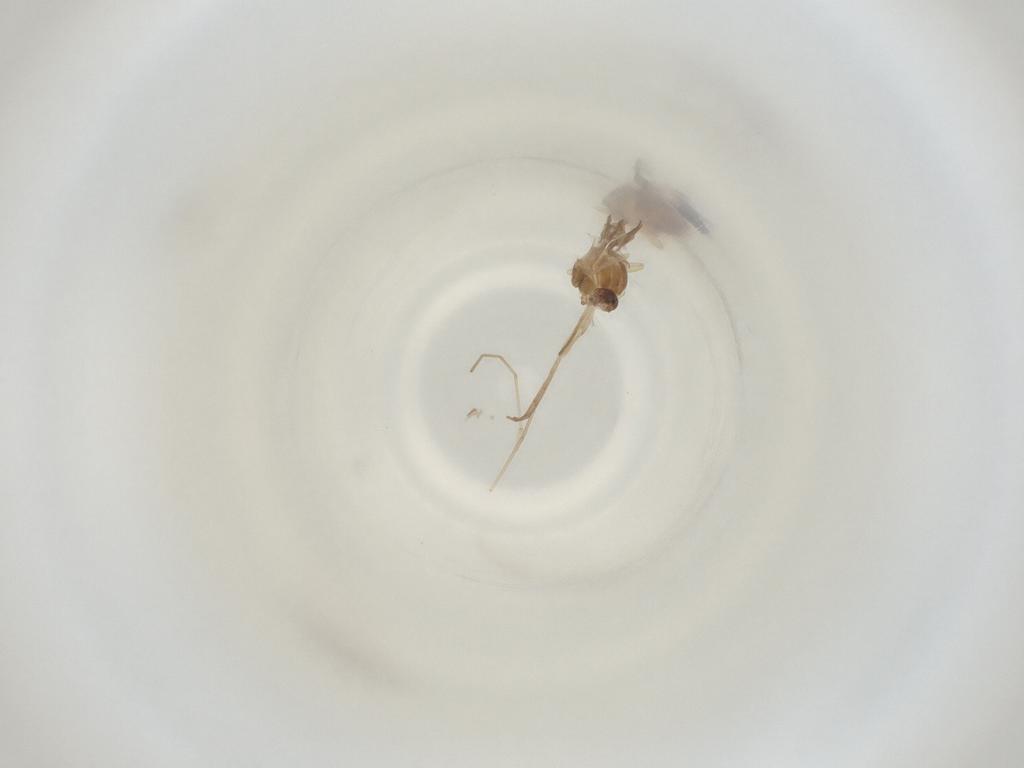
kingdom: Animalia
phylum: Arthropoda
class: Insecta
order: Diptera
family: Cecidomyiidae
